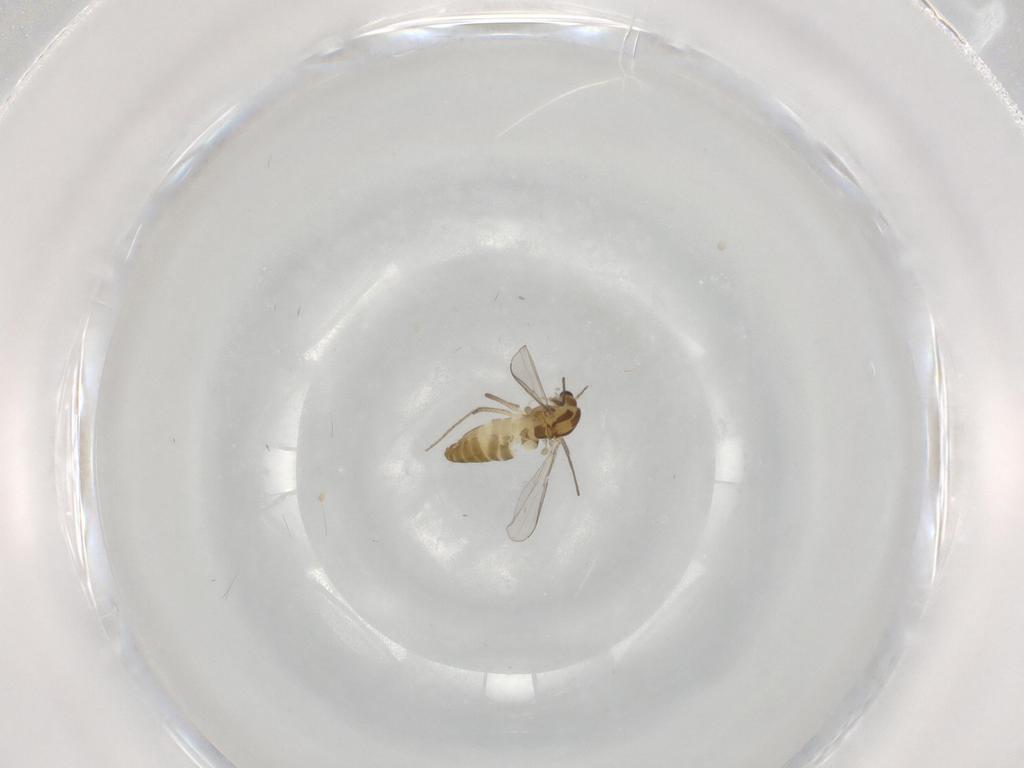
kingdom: Animalia
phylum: Arthropoda
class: Insecta
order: Diptera
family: Chironomidae
